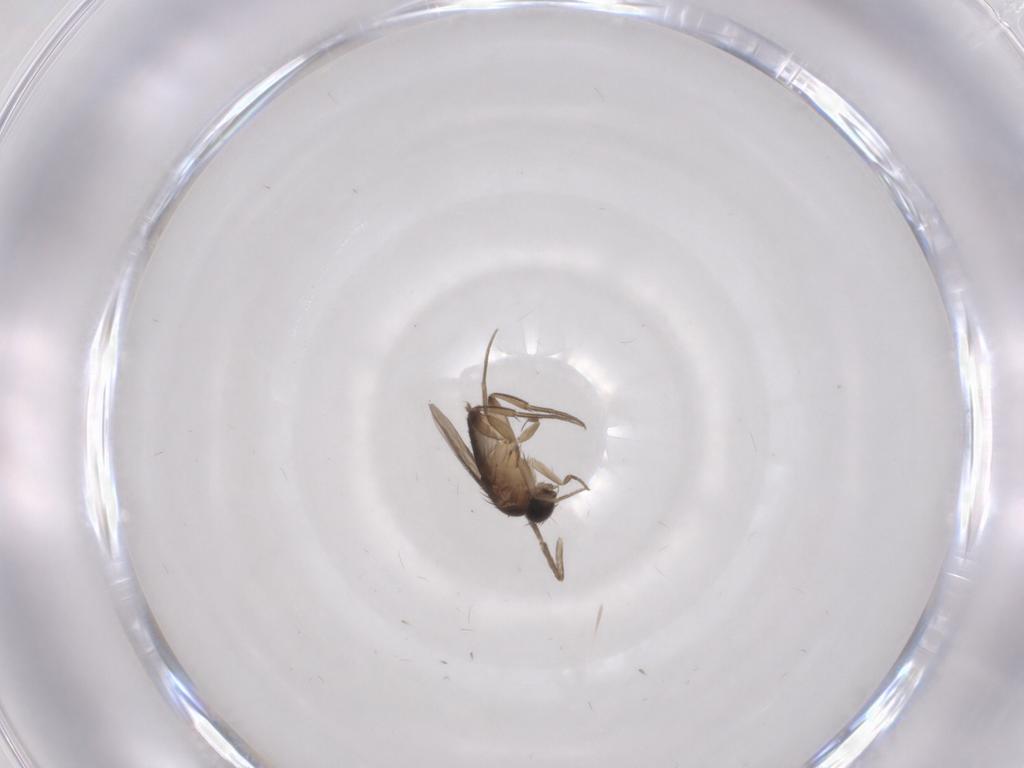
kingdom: Animalia
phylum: Arthropoda
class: Insecta
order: Diptera
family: Phoridae
